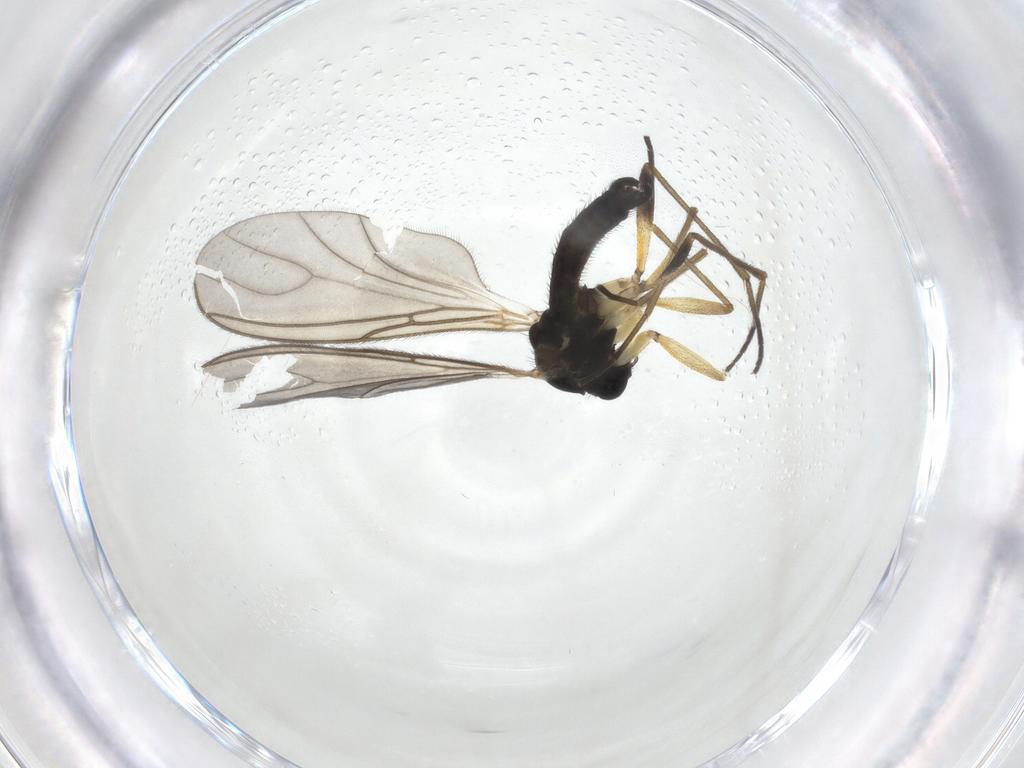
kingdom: Animalia
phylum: Arthropoda
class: Insecta
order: Diptera
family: Sciaridae
